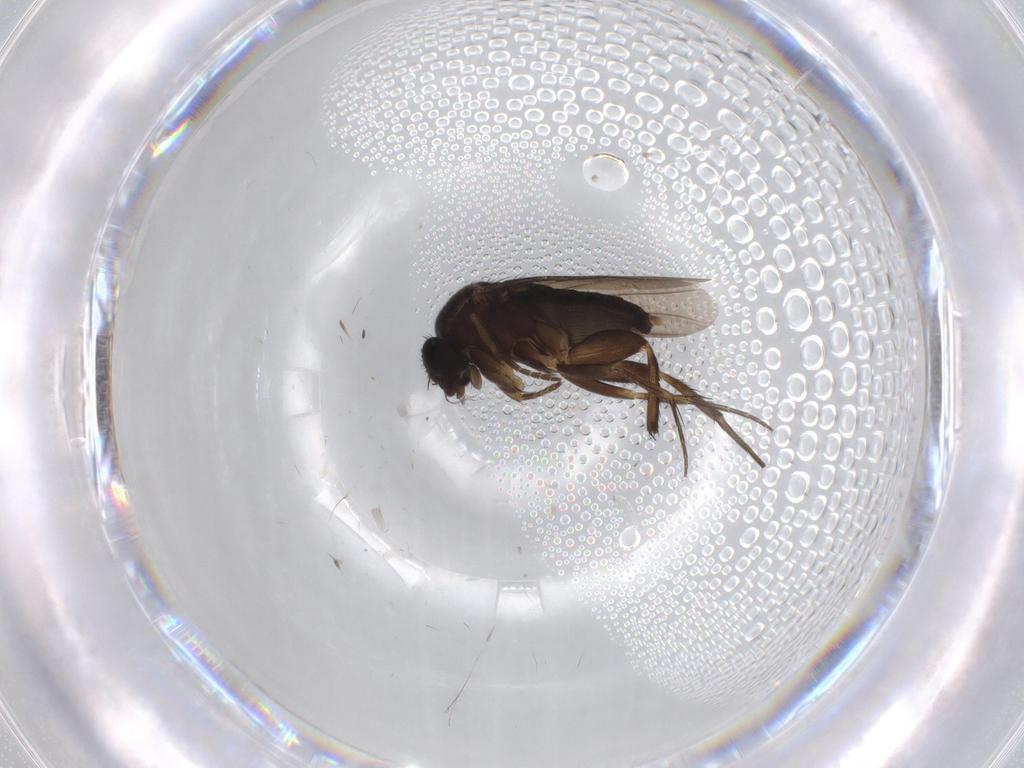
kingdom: Animalia
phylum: Arthropoda
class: Insecta
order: Diptera
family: Phoridae
